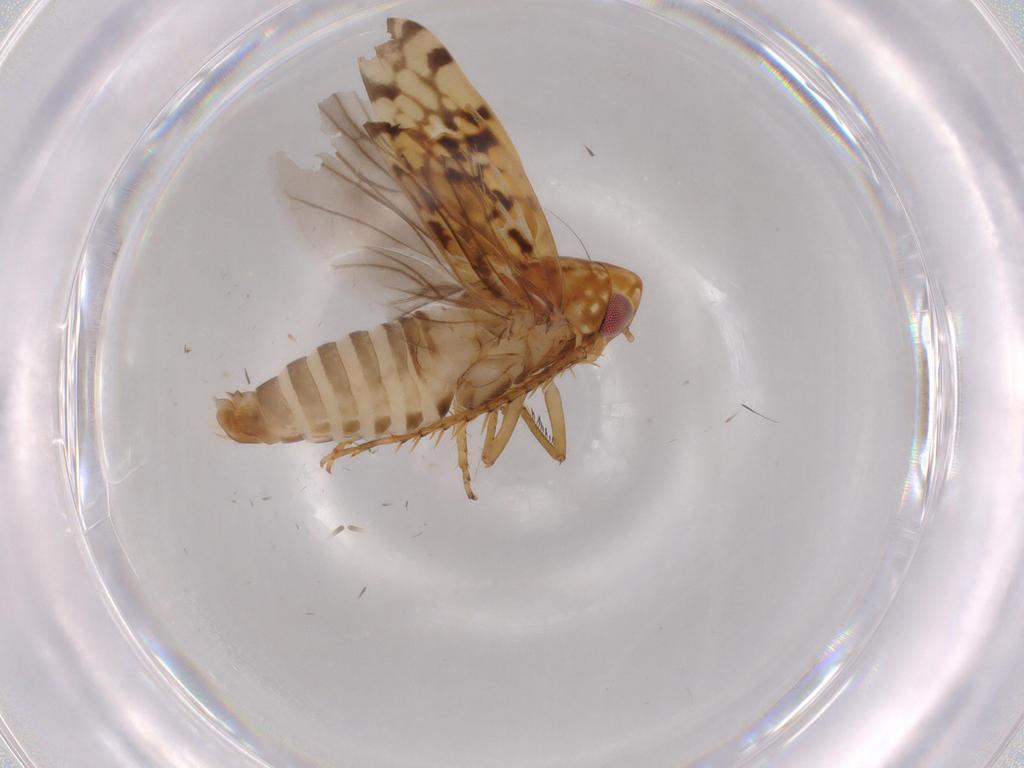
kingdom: Animalia
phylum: Arthropoda
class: Insecta
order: Hemiptera
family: Cicadellidae
